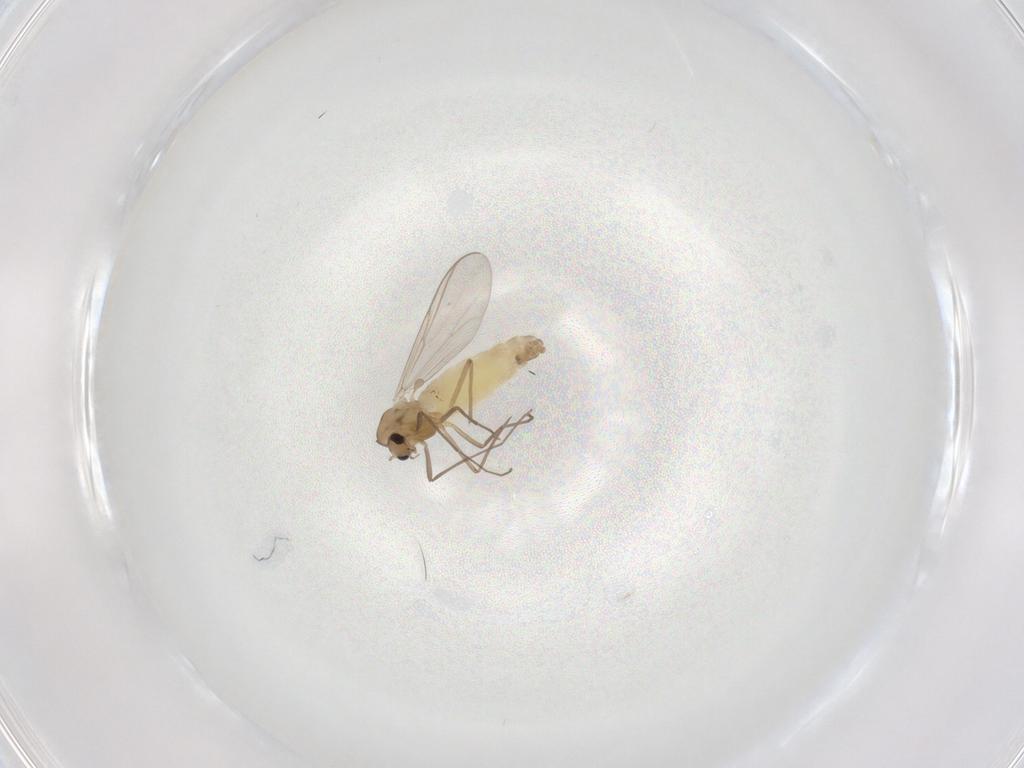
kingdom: Animalia
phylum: Arthropoda
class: Insecta
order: Diptera
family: Chironomidae
